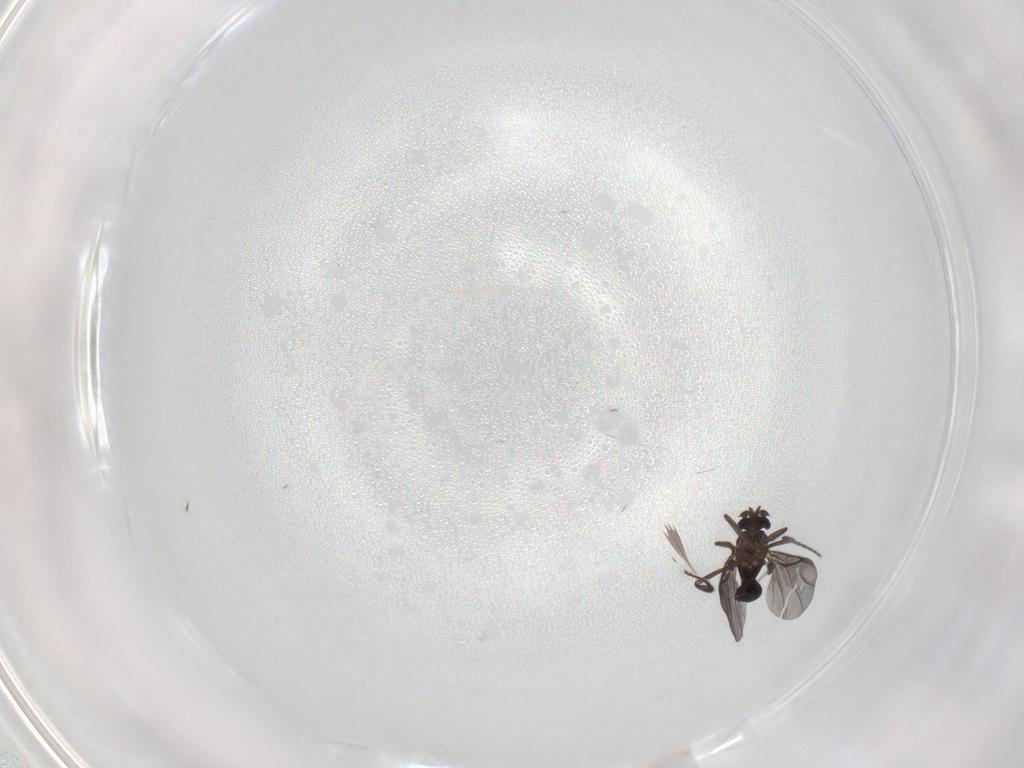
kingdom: Animalia
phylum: Arthropoda
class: Insecta
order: Diptera
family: Phoridae
